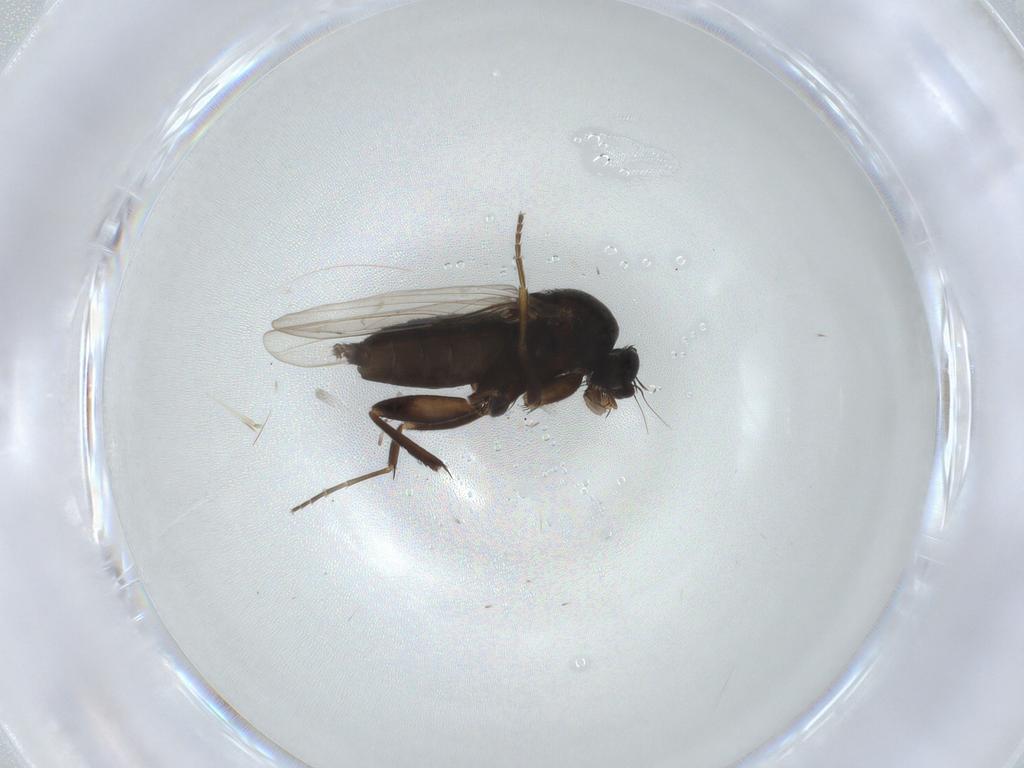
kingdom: Animalia
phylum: Arthropoda
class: Insecta
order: Diptera
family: Phoridae
